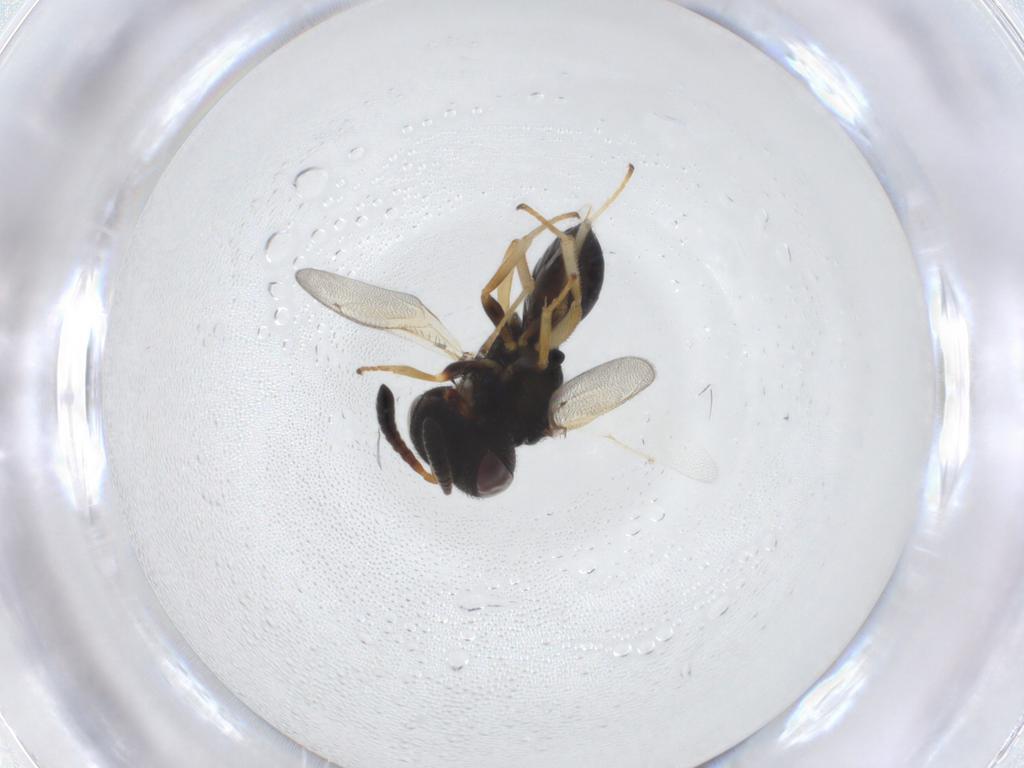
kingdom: Animalia
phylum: Arthropoda
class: Insecta
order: Hymenoptera
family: Pteromalidae
